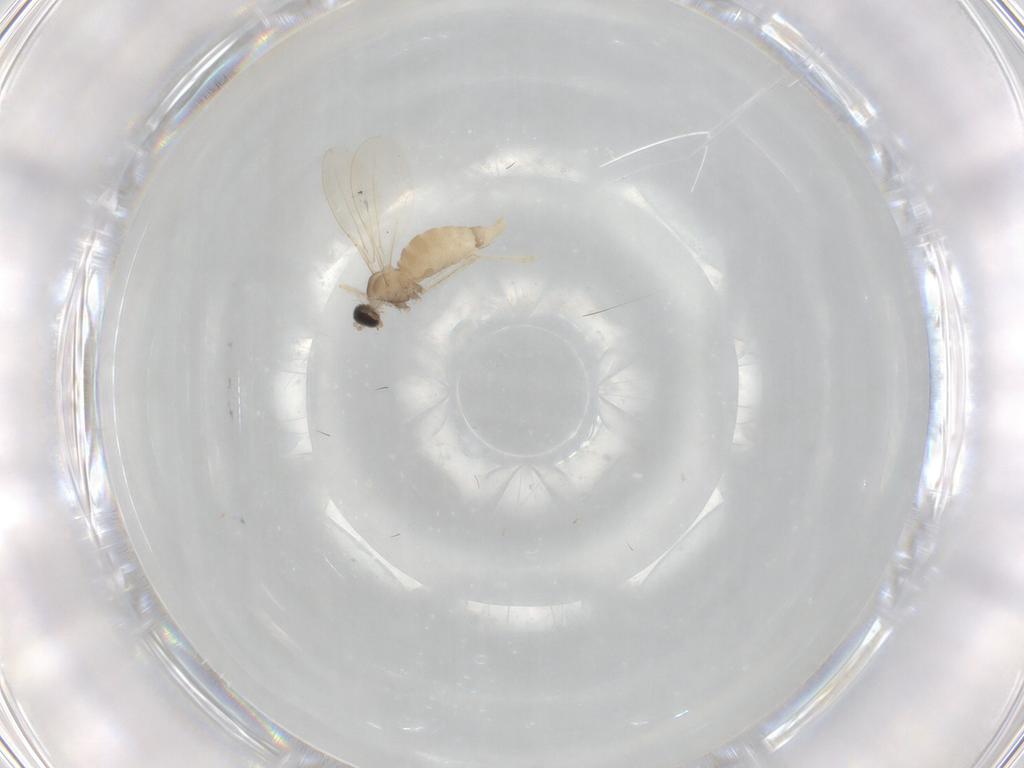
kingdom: Animalia
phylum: Arthropoda
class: Insecta
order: Diptera
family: Cecidomyiidae
